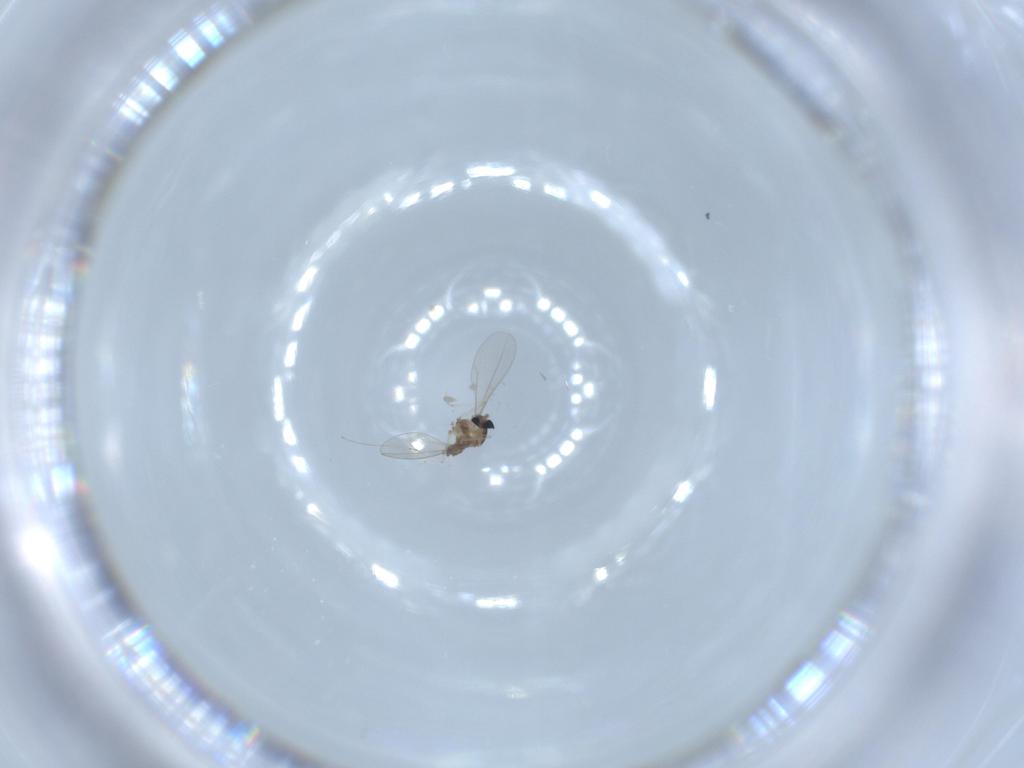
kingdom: Animalia
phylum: Arthropoda
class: Insecta
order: Diptera
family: Cecidomyiidae
